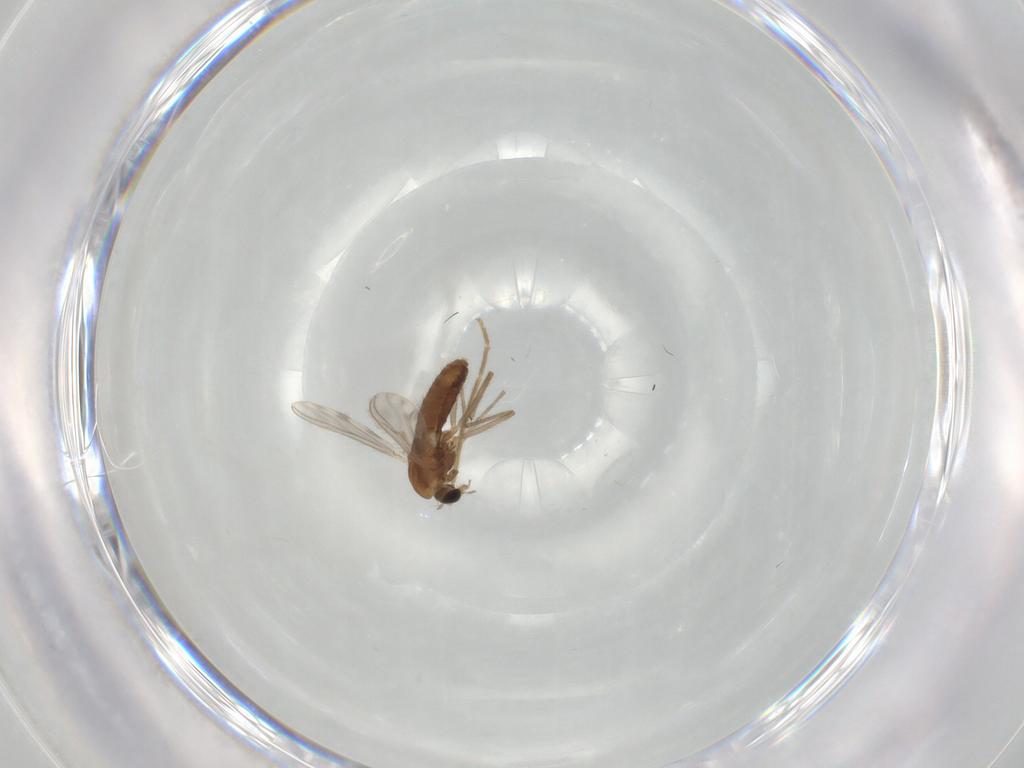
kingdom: Animalia
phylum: Arthropoda
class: Insecta
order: Diptera
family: Chironomidae
